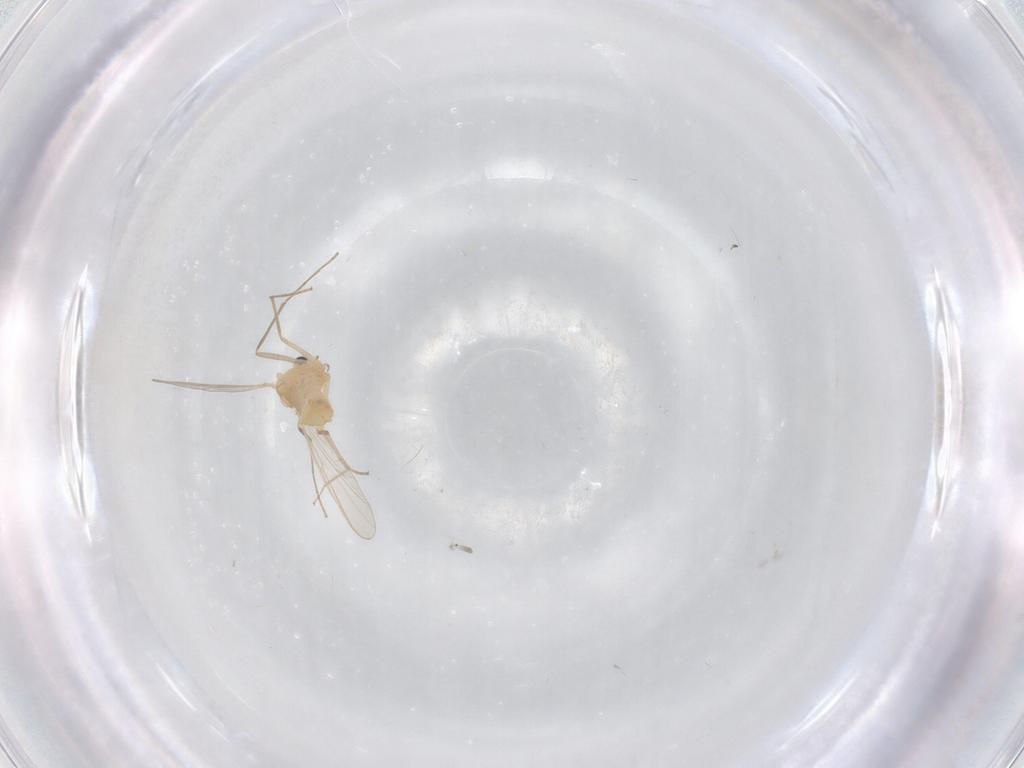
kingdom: Animalia
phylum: Arthropoda
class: Insecta
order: Diptera
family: Chironomidae
